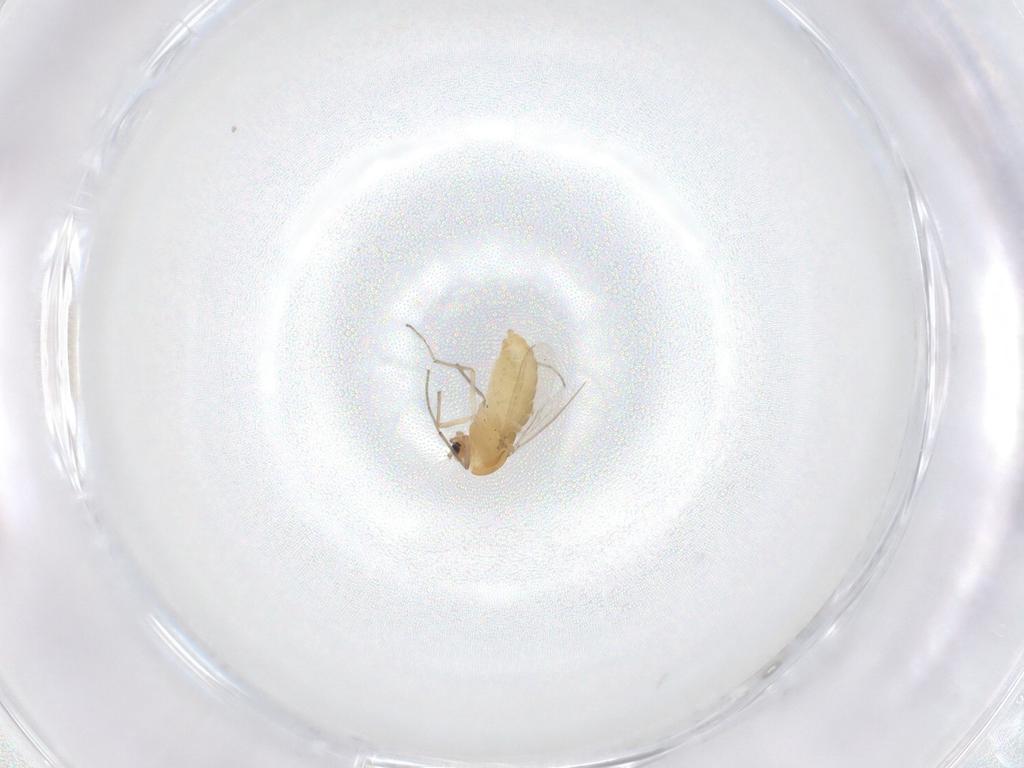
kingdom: Animalia
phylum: Arthropoda
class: Insecta
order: Diptera
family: Chironomidae
